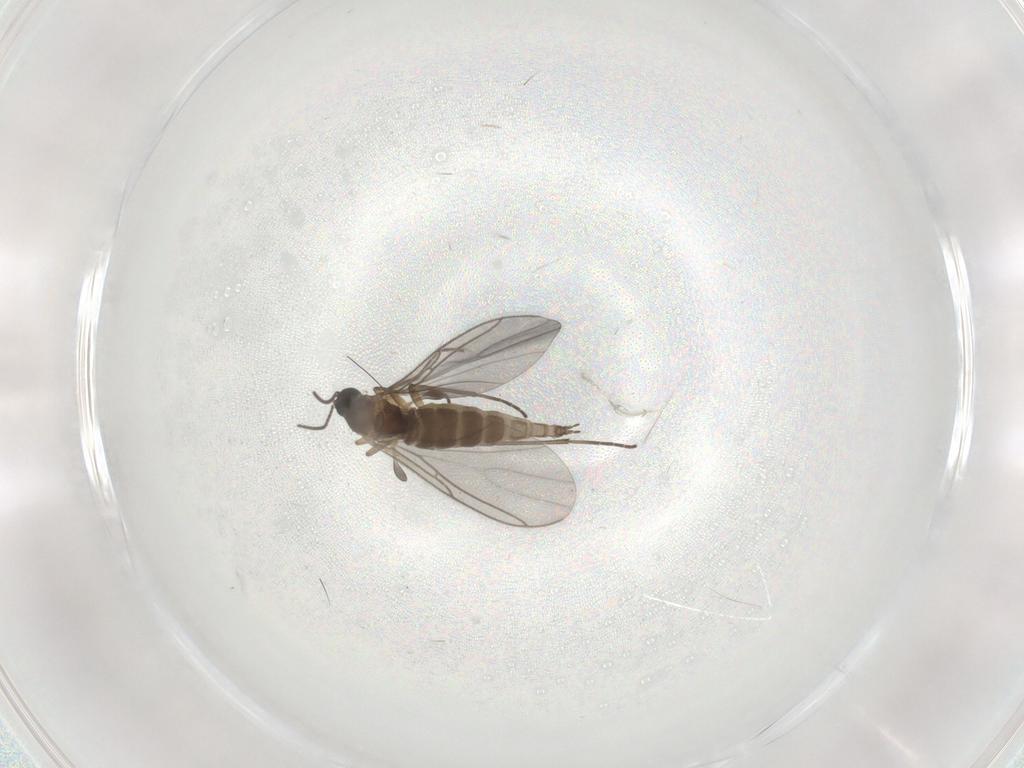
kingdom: Animalia
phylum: Arthropoda
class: Insecta
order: Diptera
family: Sciaridae
